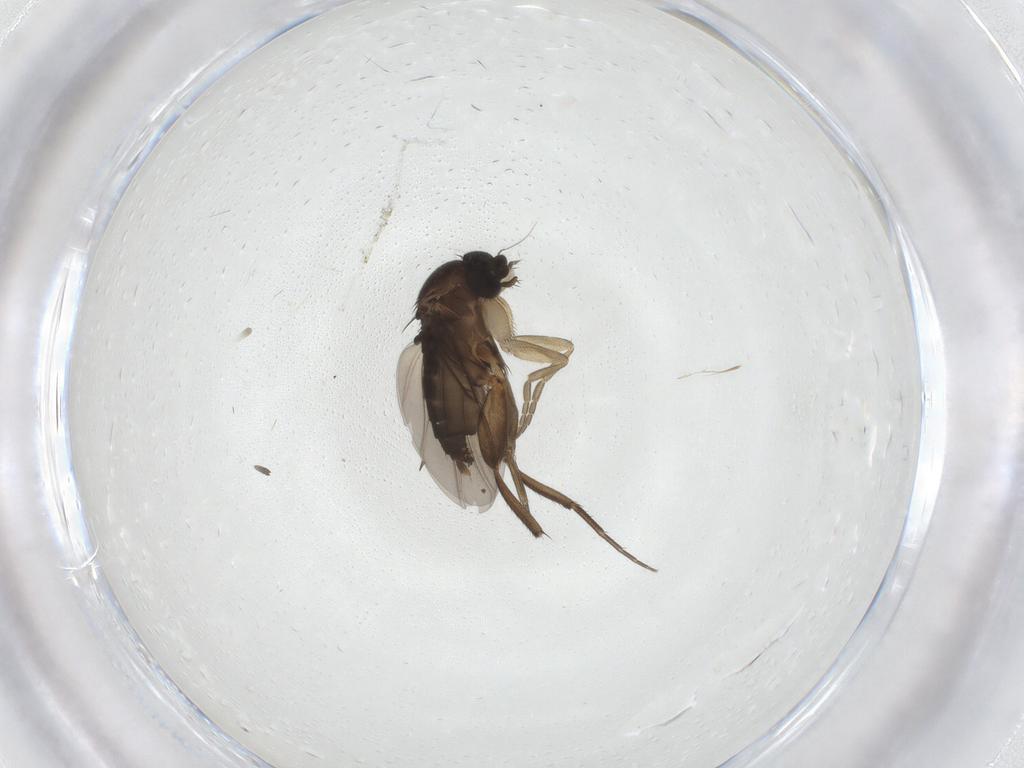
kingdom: Animalia
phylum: Arthropoda
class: Insecta
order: Diptera
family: Phoridae
